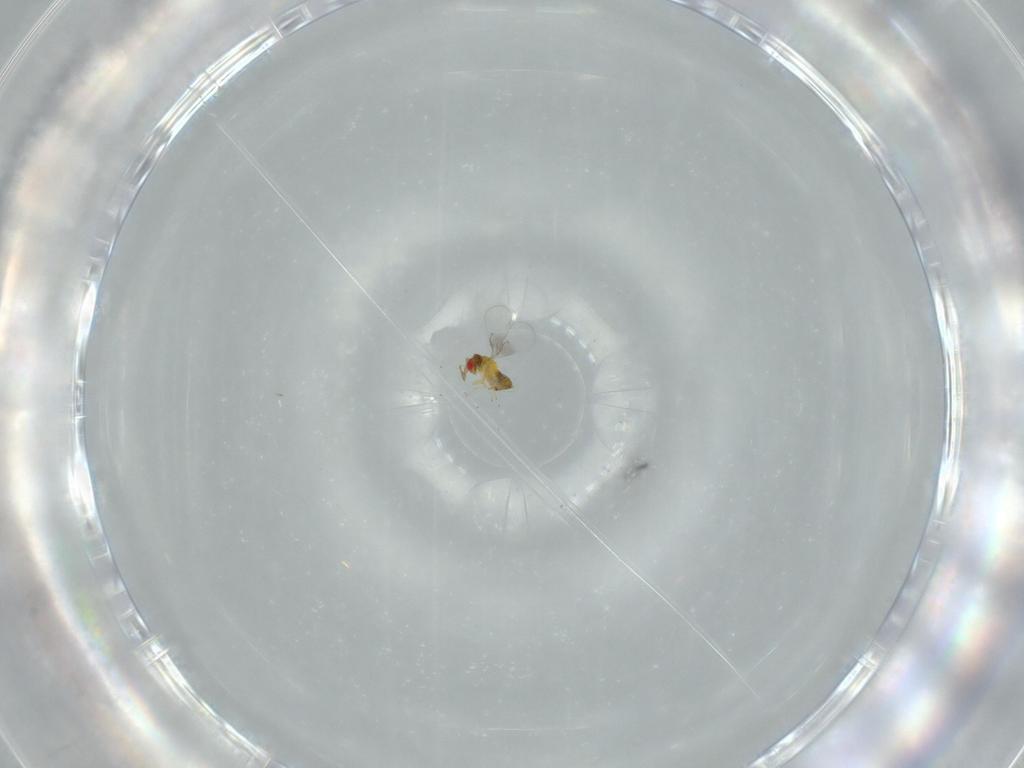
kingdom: Animalia
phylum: Arthropoda
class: Insecta
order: Hymenoptera
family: Trichogrammatidae
